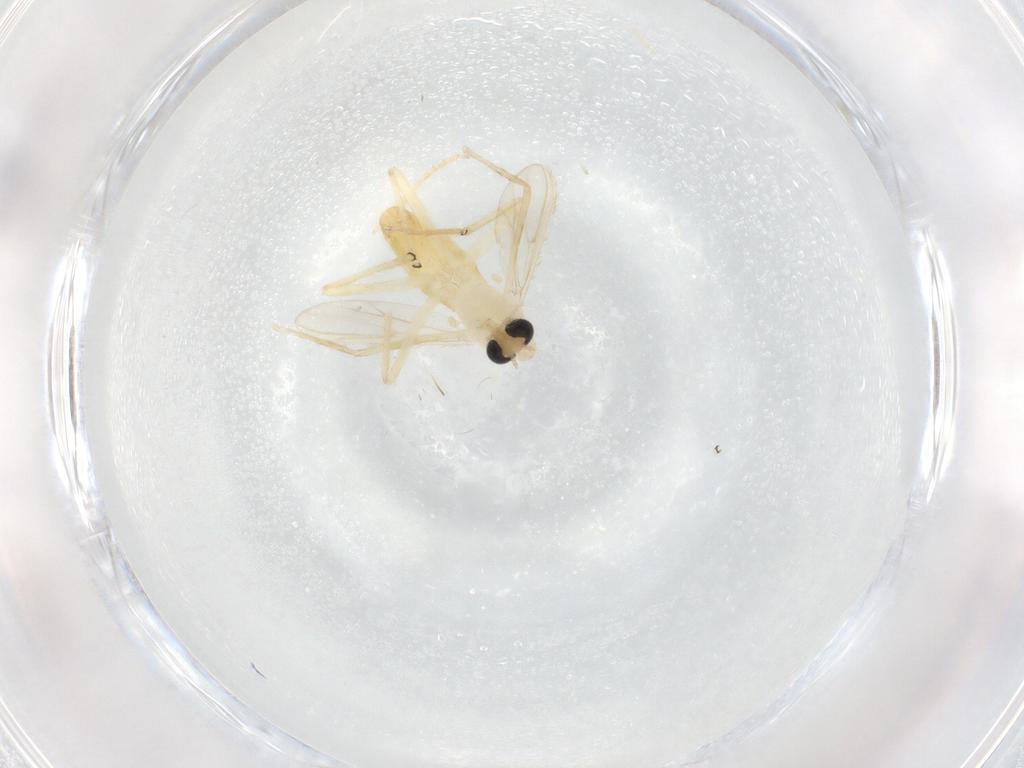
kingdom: Animalia
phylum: Arthropoda
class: Insecta
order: Diptera
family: Chironomidae
